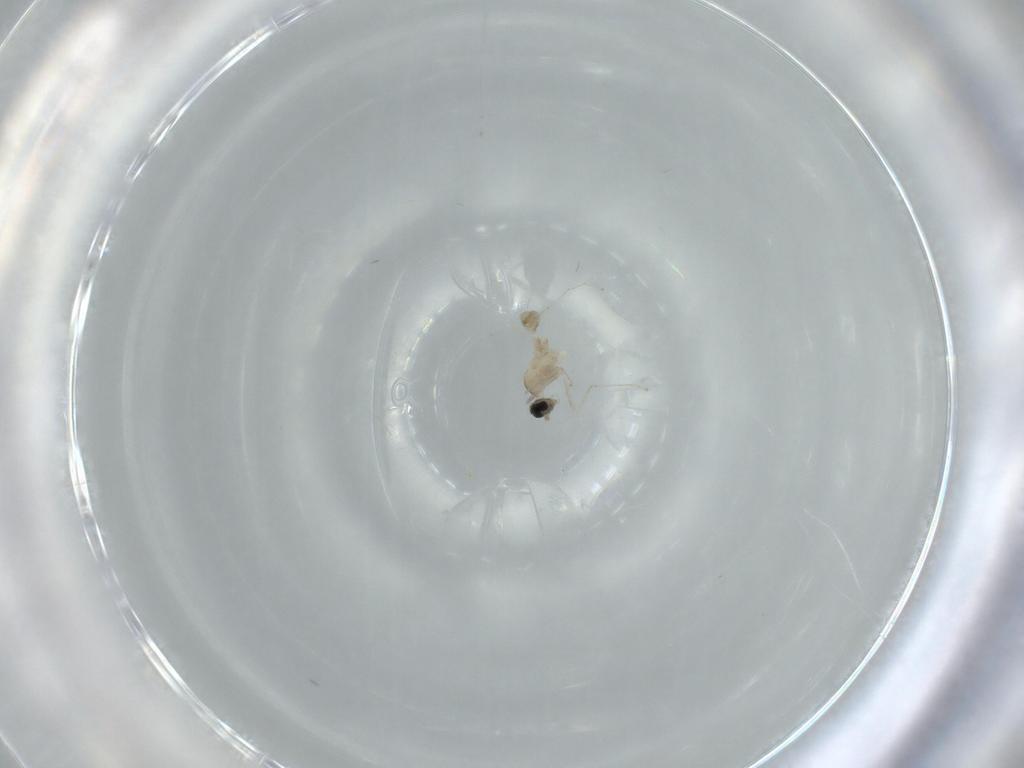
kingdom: Animalia
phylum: Arthropoda
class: Insecta
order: Diptera
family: Cecidomyiidae
